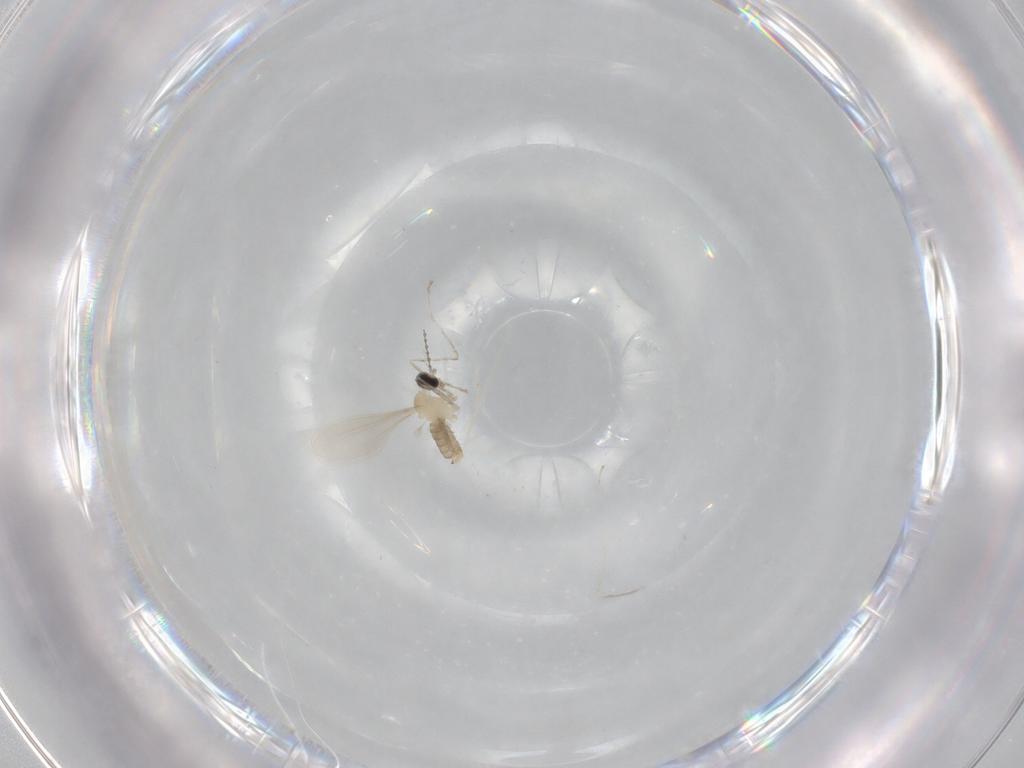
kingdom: Animalia
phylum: Arthropoda
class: Insecta
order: Diptera
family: Cecidomyiidae
